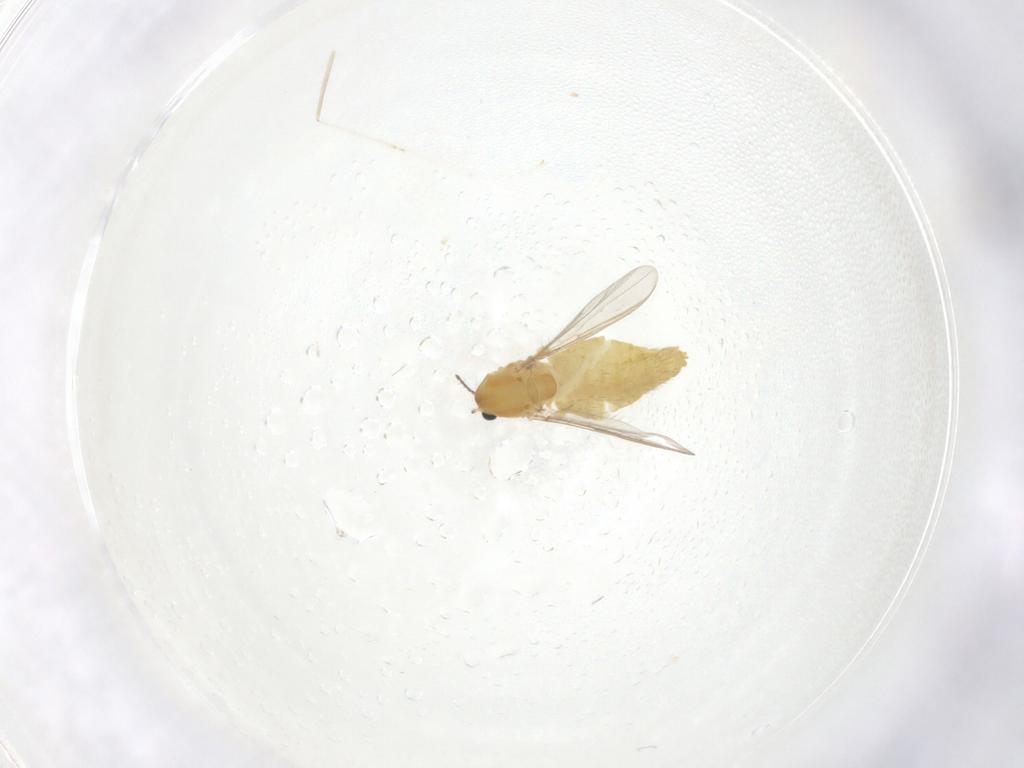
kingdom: Animalia
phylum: Arthropoda
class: Insecta
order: Diptera
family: Chironomidae
